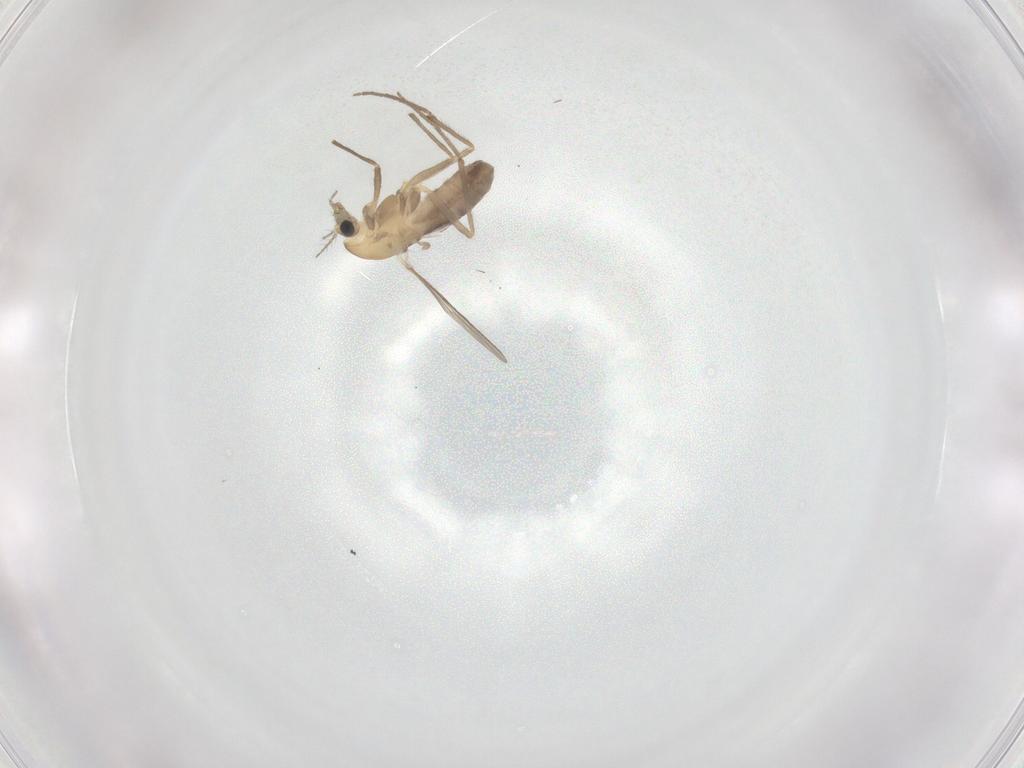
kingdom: Animalia
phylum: Arthropoda
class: Insecta
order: Diptera
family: Chironomidae
